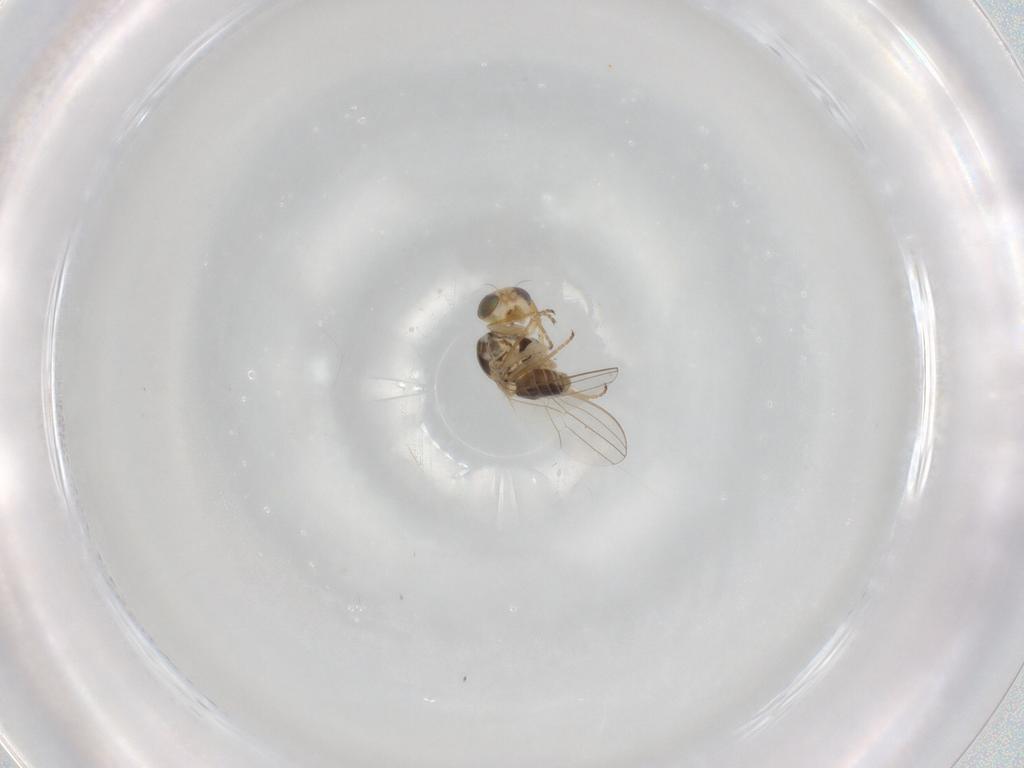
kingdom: Animalia
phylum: Arthropoda
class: Insecta
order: Diptera
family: Chyromyidae
